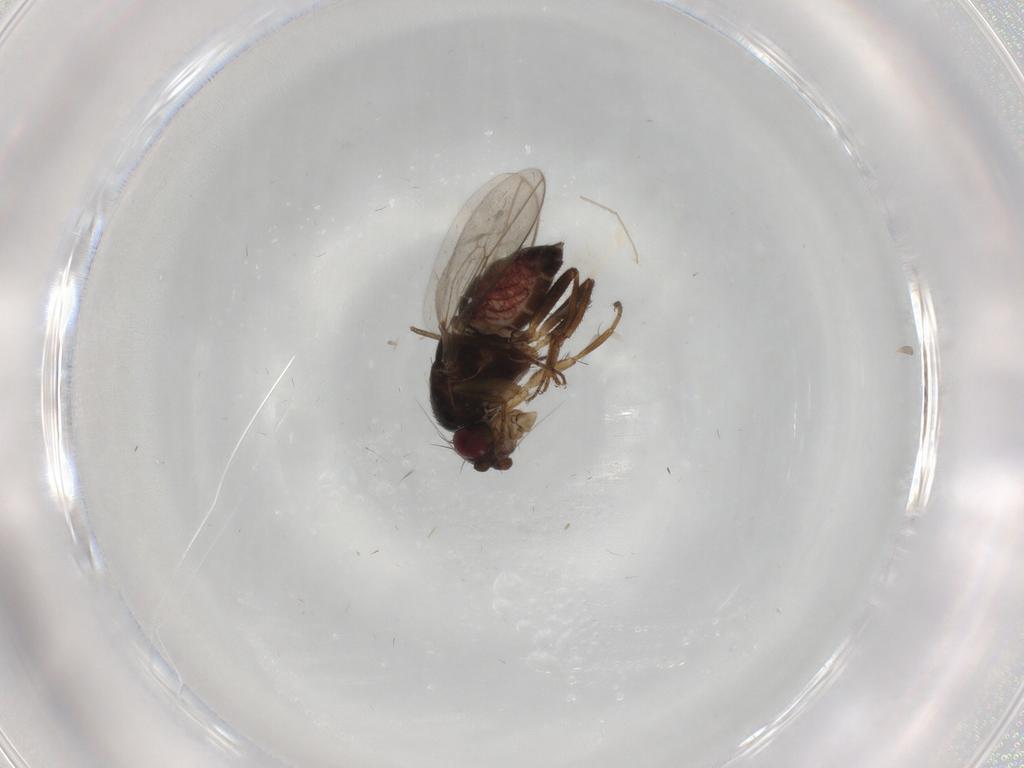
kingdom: Animalia
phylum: Arthropoda
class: Insecta
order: Diptera
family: Sphaeroceridae
